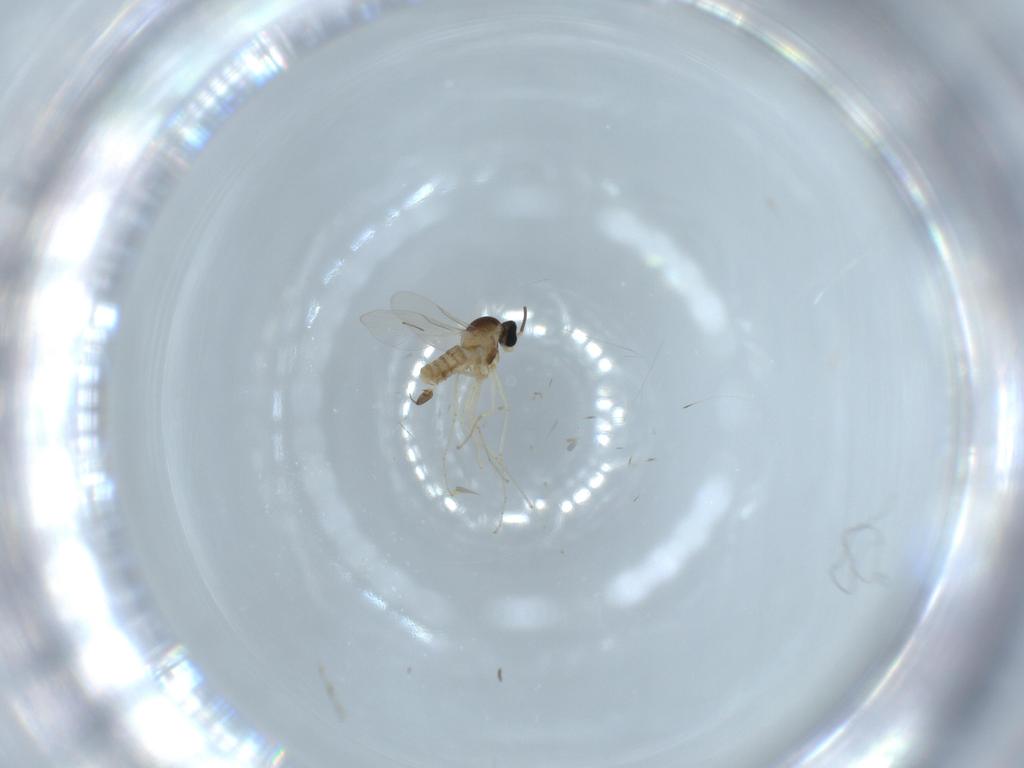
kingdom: Animalia
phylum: Arthropoda
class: Insecta
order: Diptera
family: Cecidomyiidae
